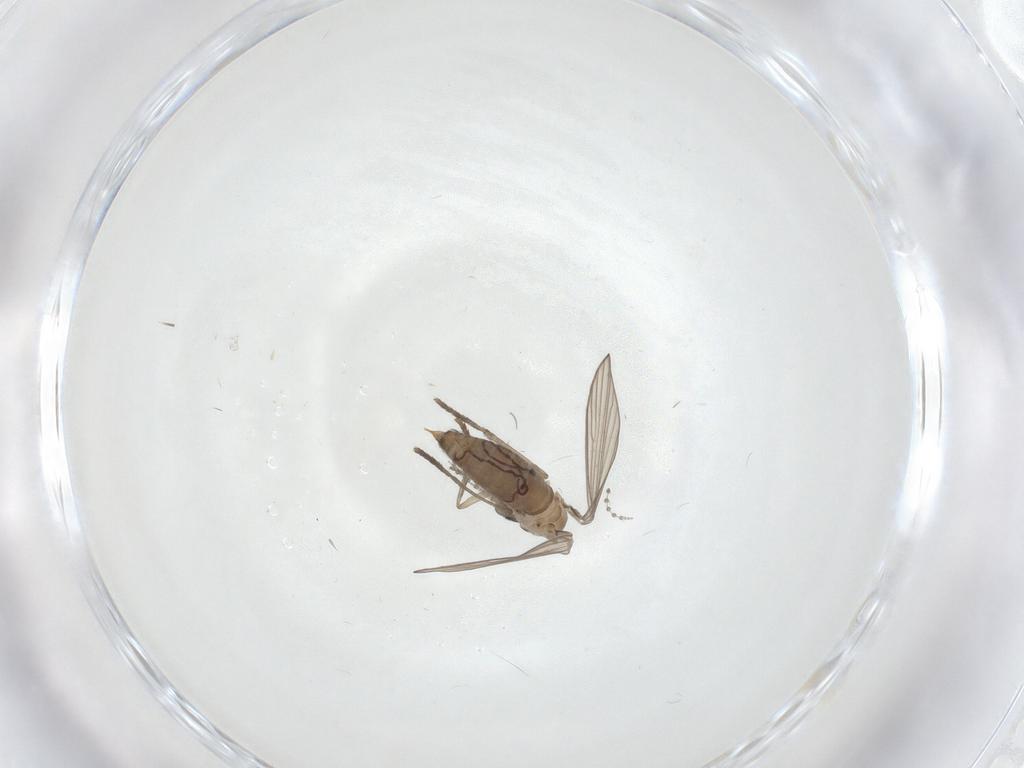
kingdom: Animalia
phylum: Arthropoda
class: Insecta
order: Diptera
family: Psychodidae
